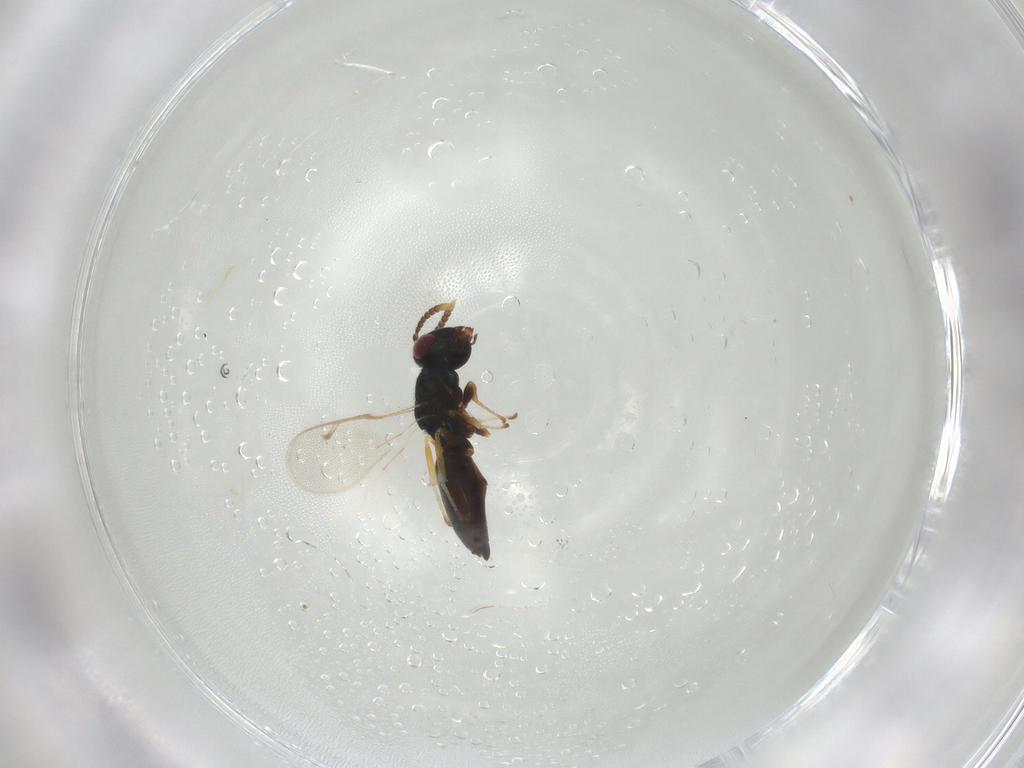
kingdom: Animalia
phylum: Arthropoda
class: Insecta
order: Hymenoptera
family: Pteromalidae
